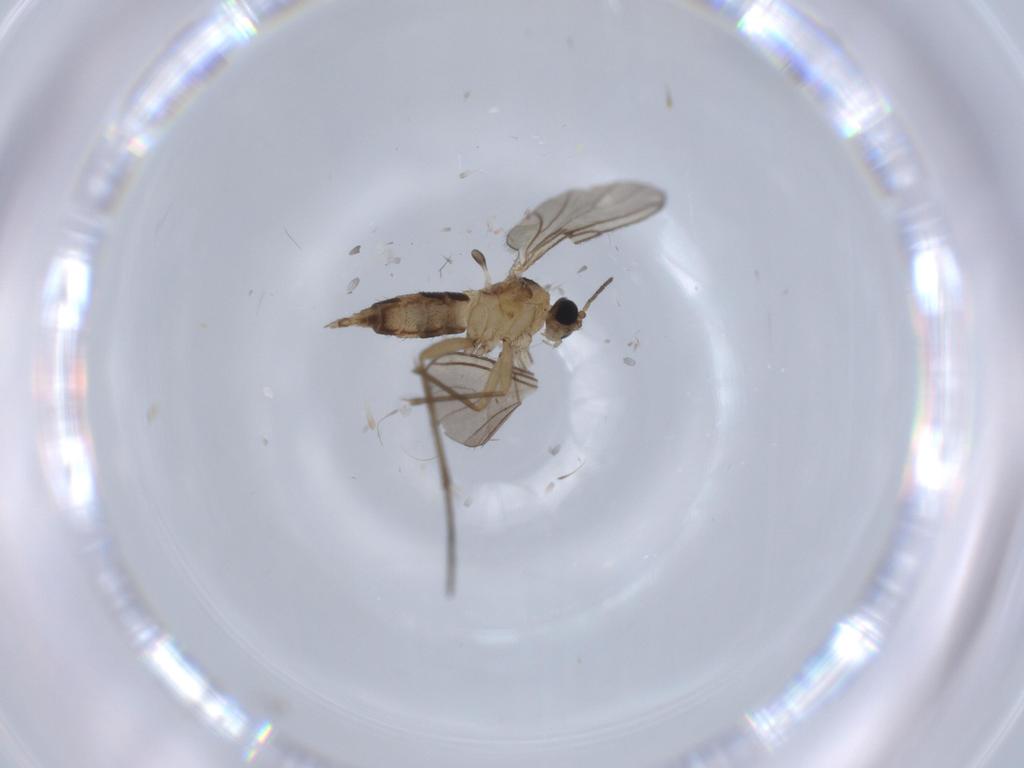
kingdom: Animalia
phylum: Arthropoda
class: Insecta
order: Diptera
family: Sciaridae
